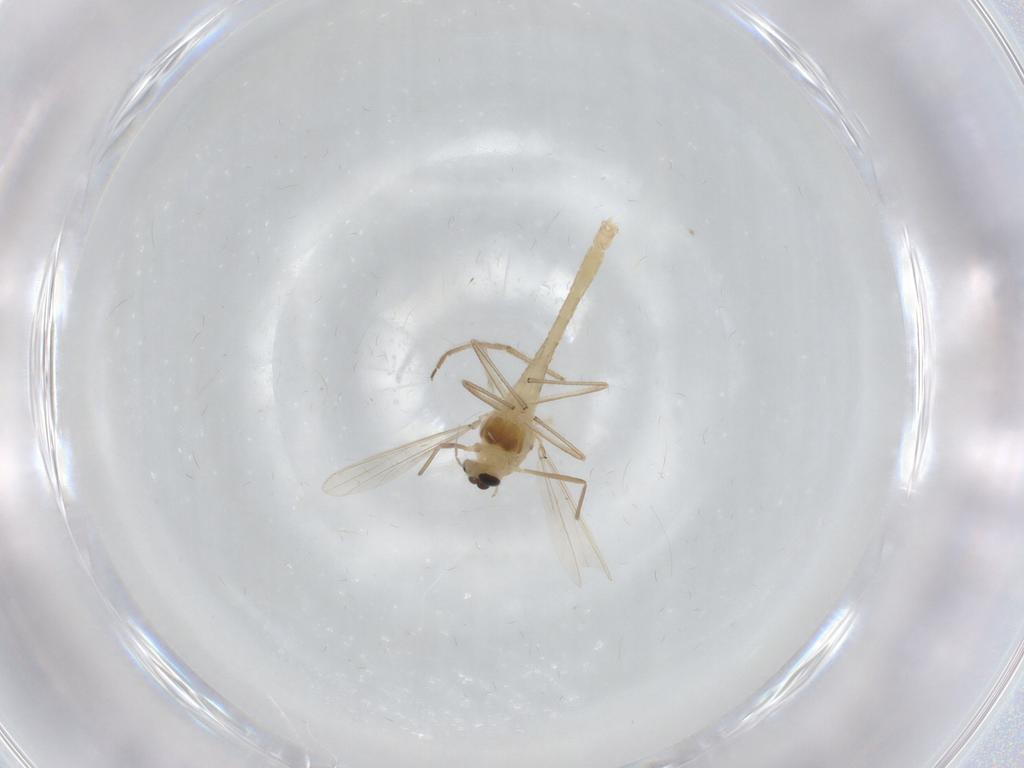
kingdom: Animalia
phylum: Arthropoda
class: Insecta
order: Diptera
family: Chironomidae
